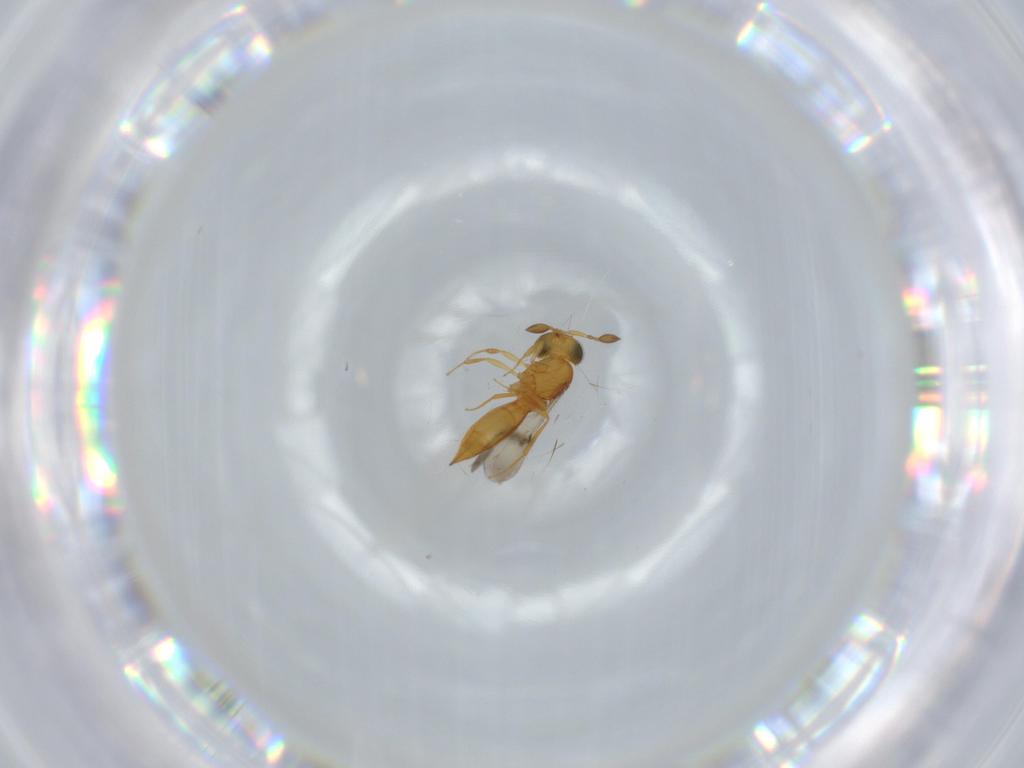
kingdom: Animalia
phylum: Arthropoda
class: Insecta
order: Hymenoptera
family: Scelionidae
